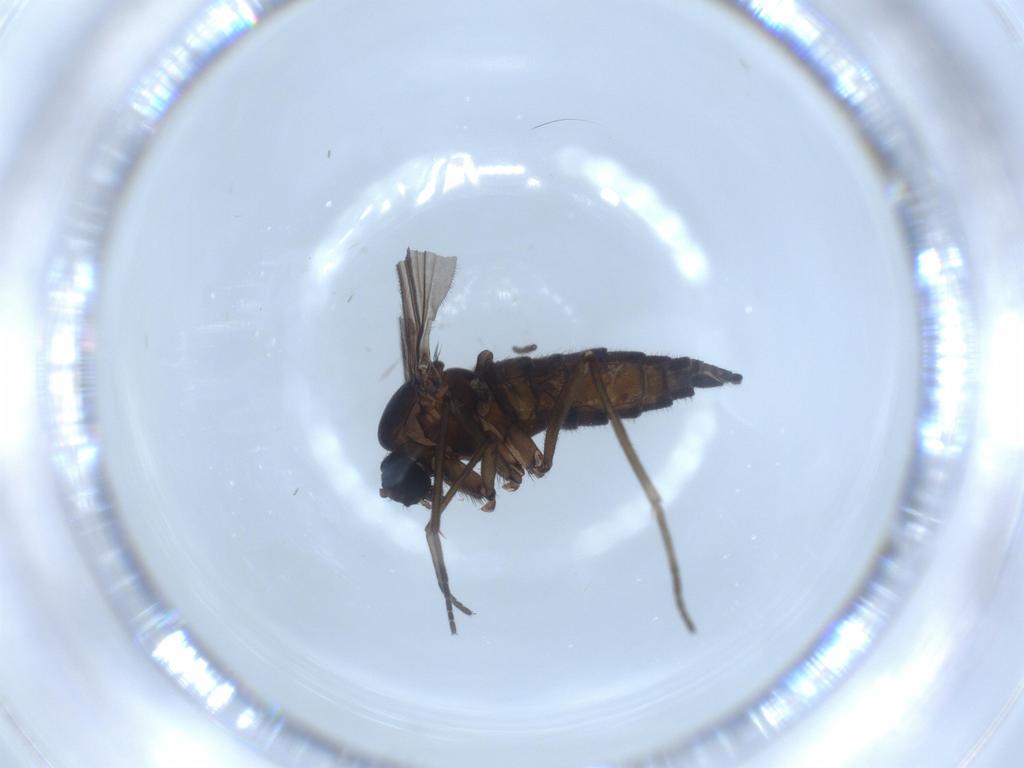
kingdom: Animalia
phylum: Arthropoda
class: Insecta
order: Diptera
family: Sciaridae
